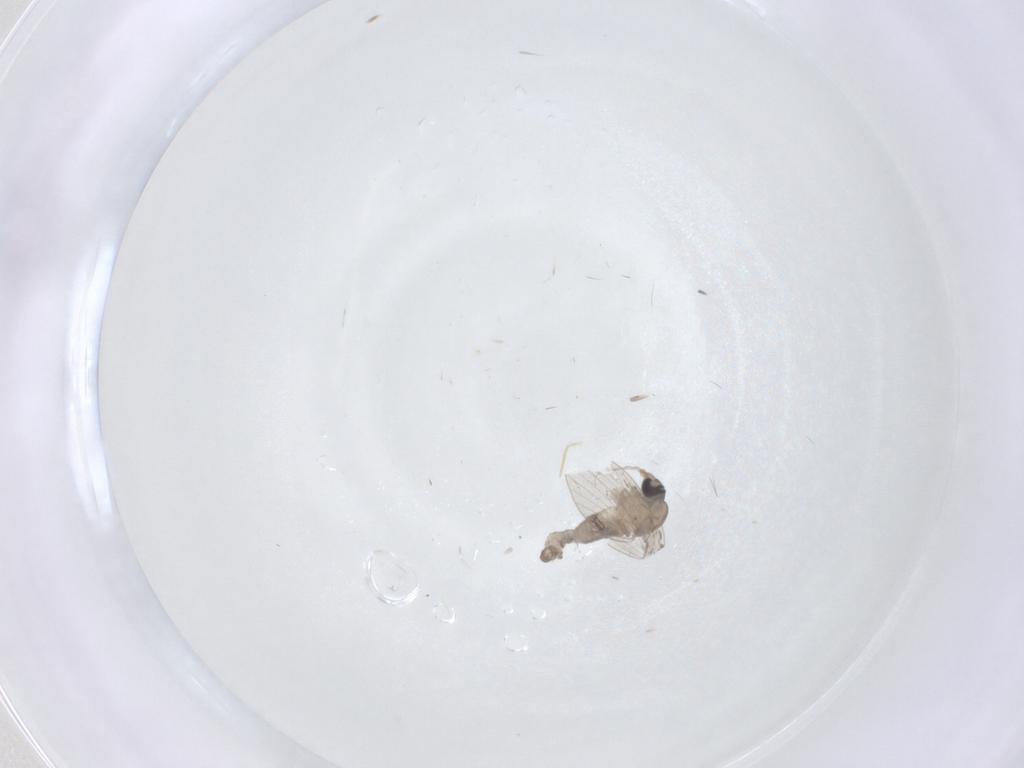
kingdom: Animalia
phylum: Arthropoda
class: Insecta
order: Diptera
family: Psychodidae
